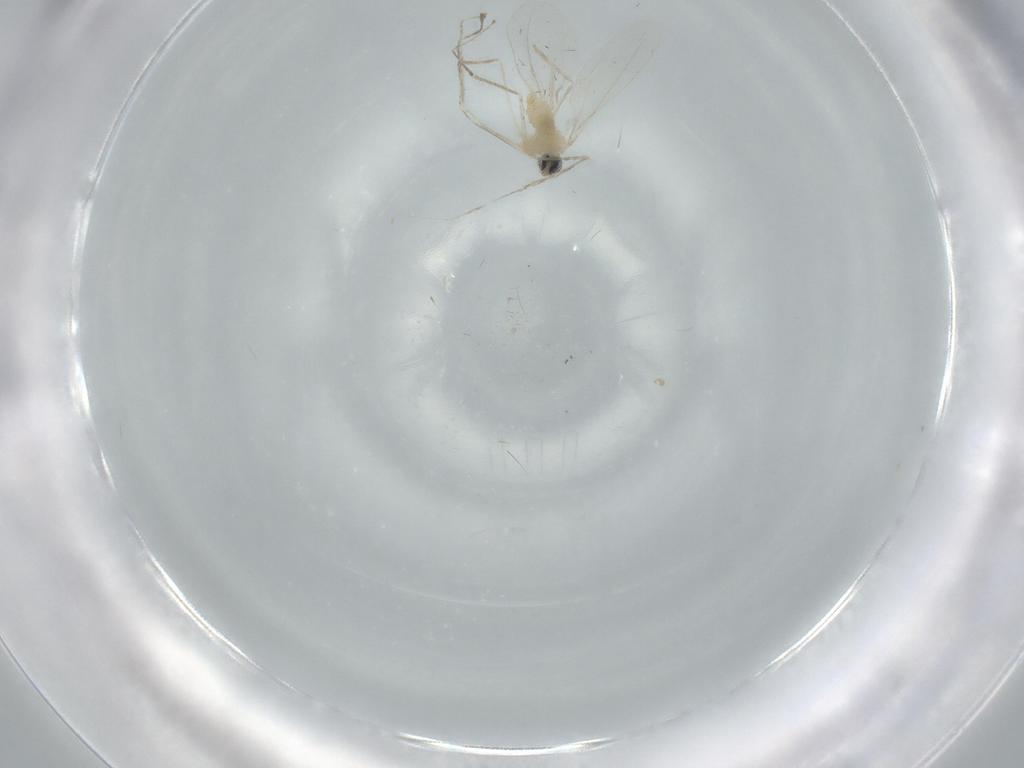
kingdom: Animalia
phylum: Arthropoda
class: Insecta
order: Diptera
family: Cecidomyiidae
